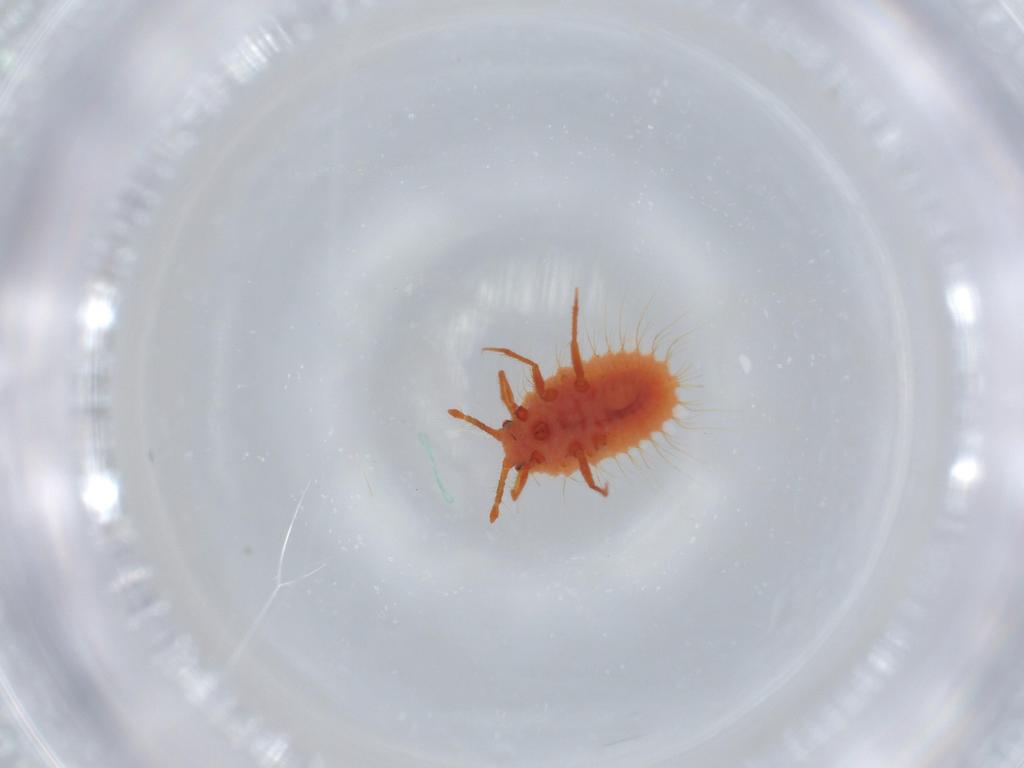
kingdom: Animalia
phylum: Arthropoda
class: Insecta
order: Hemiptera
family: Coccoidea_incertae_sedis
